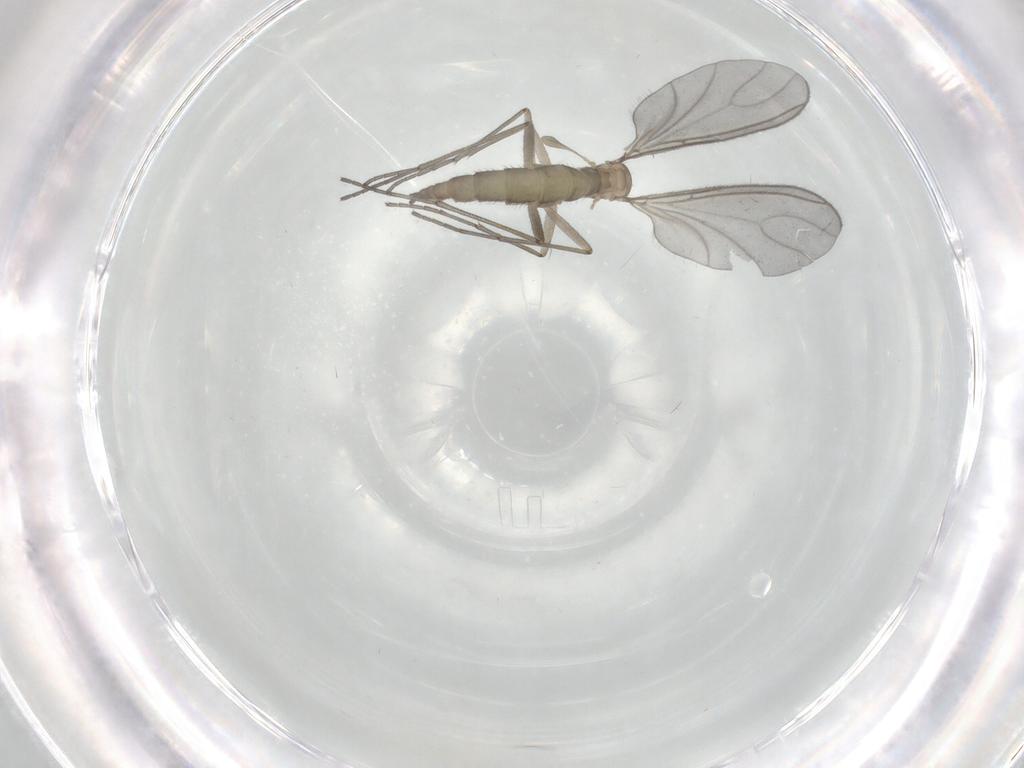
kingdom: Animalia
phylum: Arthropoda
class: Insecta
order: Diptera
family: Sciaridae
